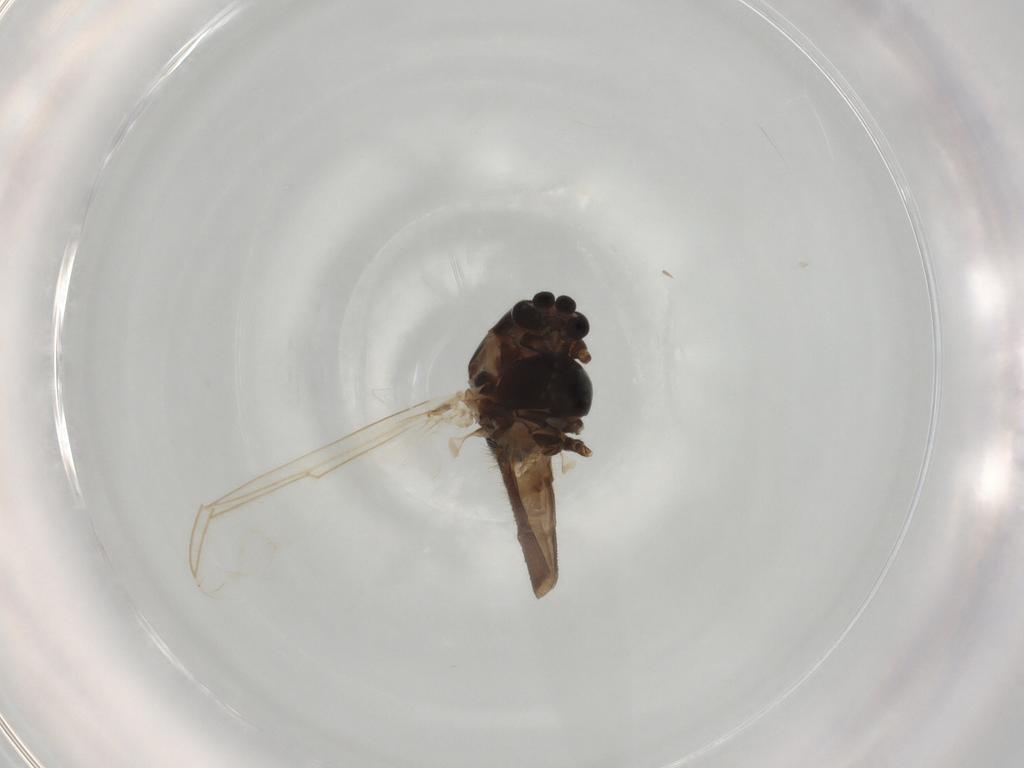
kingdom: Animalia
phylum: Arthropoda
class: Insecta
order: Diptera
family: Chironomidae
